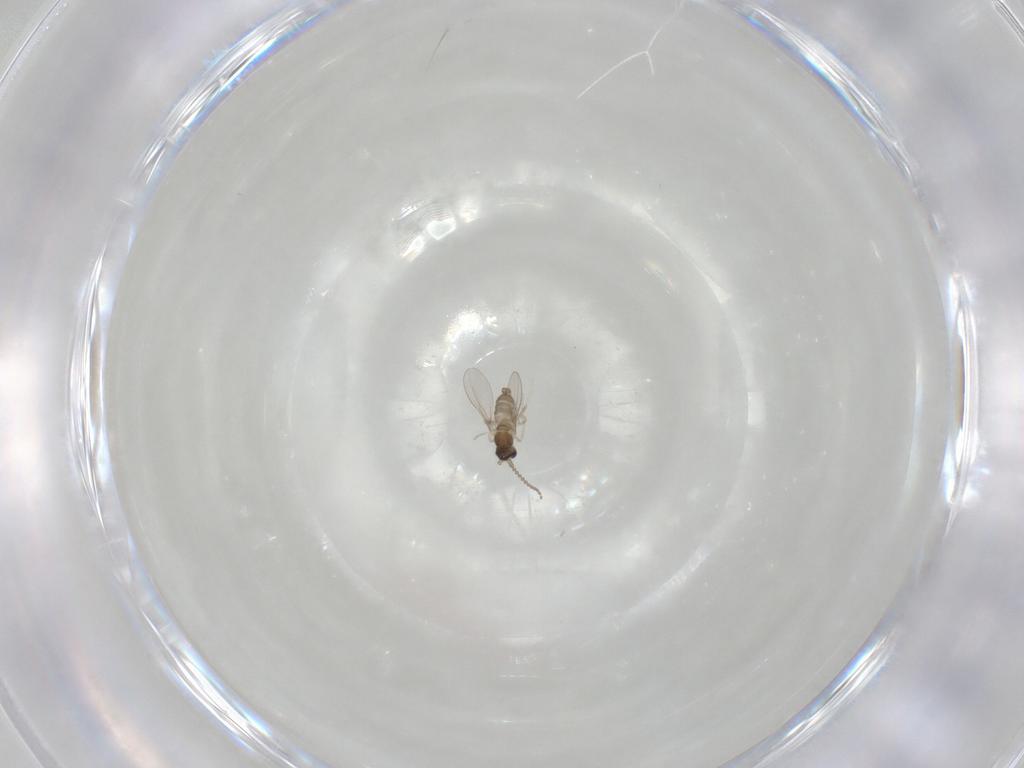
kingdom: Animalia
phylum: Arthropoda
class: Insecta
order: Diptera
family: Cecidomyiidae
